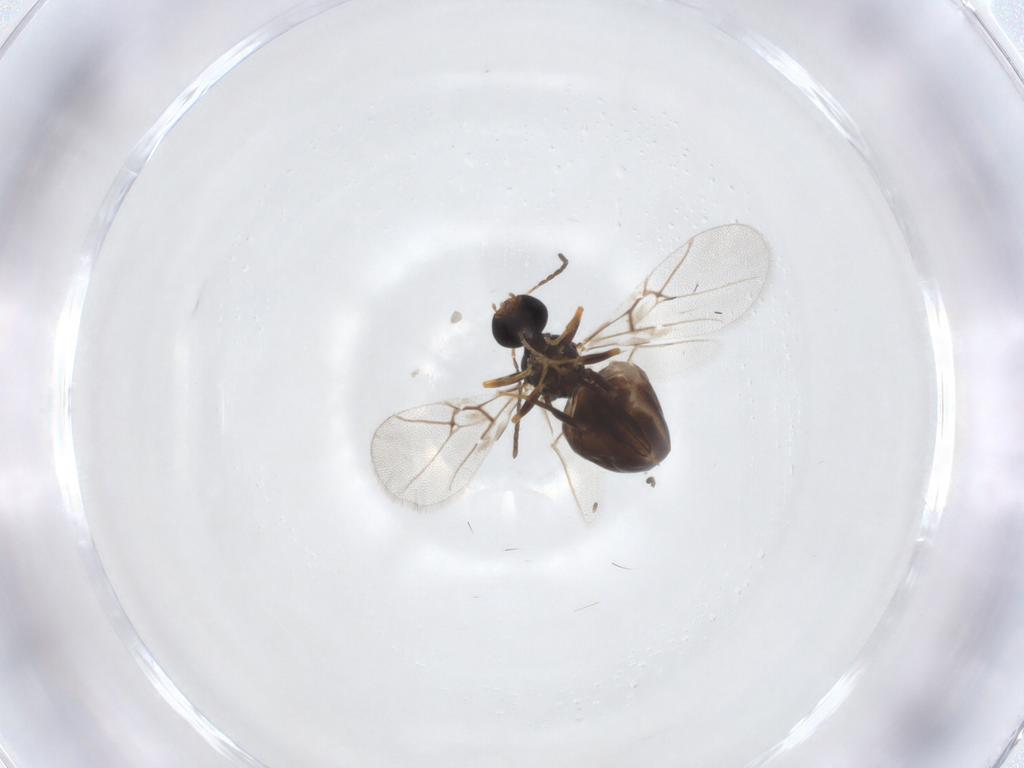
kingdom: Animalia
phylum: Arthropoda
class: Insecta
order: Hymenoptera
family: Cynipidae
